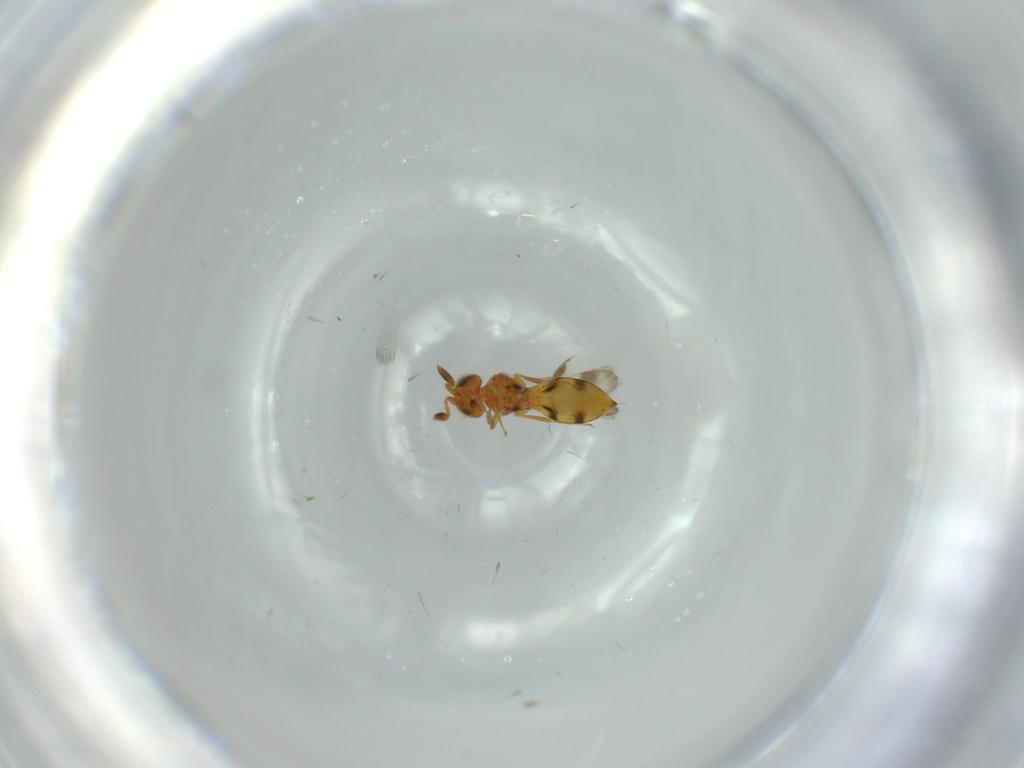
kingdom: Animalia
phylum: Arthropoda
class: Insecta
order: Hymenoptera
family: Scelionidae
